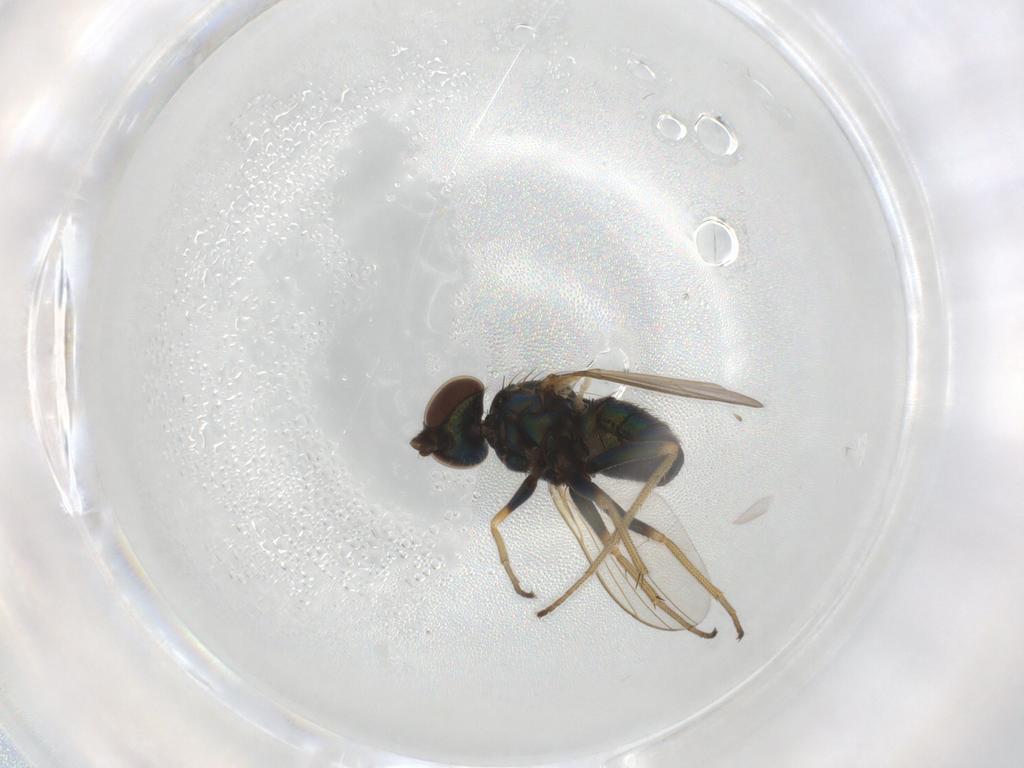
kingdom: Animalia
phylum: Arthropoda
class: Insecta
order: Diptera
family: Dolichopodidae
